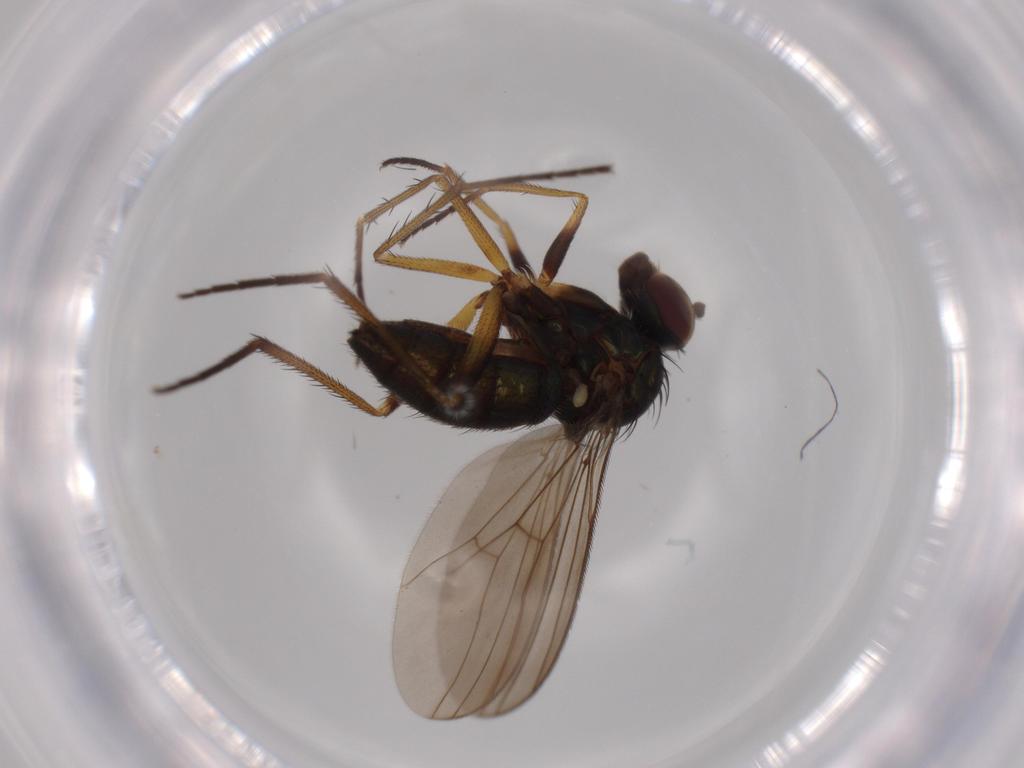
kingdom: Animalia
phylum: Arthropoda
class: Insecta
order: Diptera
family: Dolichopodidae
